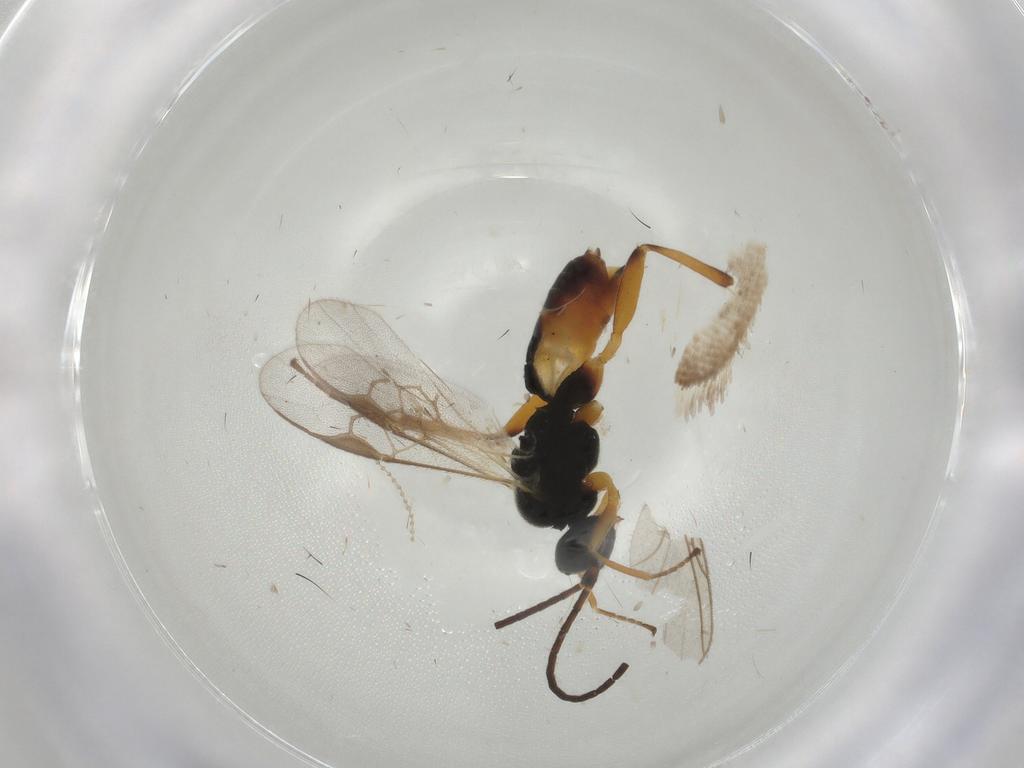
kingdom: Animalia
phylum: Arthropoda
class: Insecta
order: Hymenoptera
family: Braconidae
